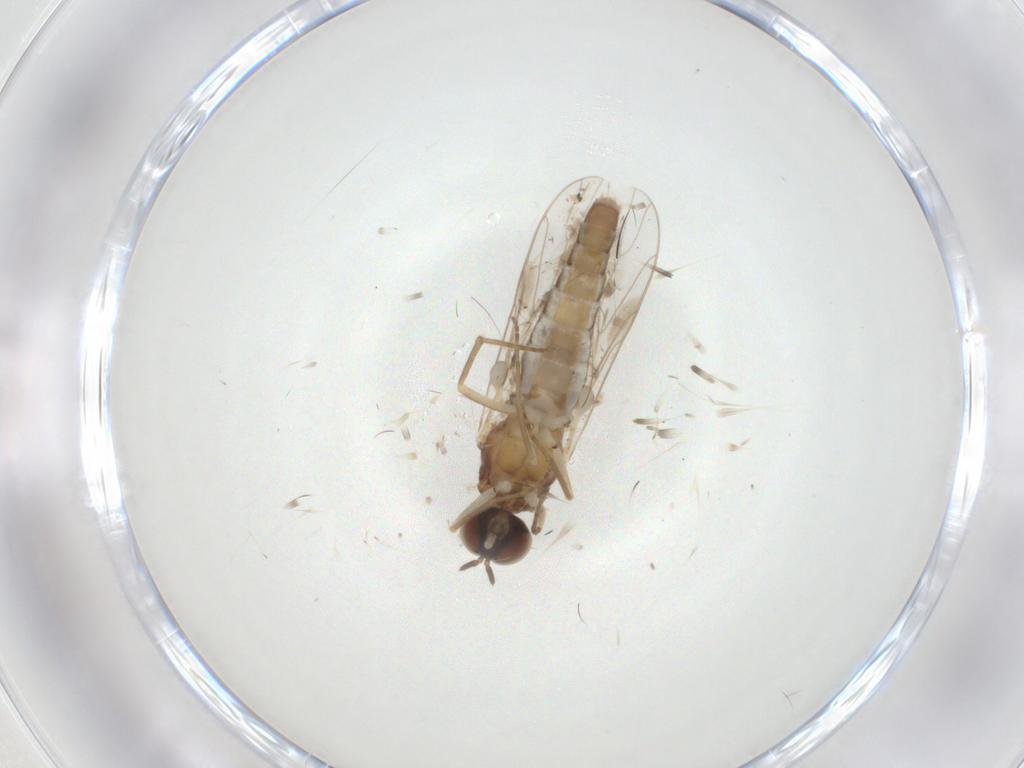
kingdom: Animalia
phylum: Arthropoda
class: Insecta
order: Diptera
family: Scenopinidae
